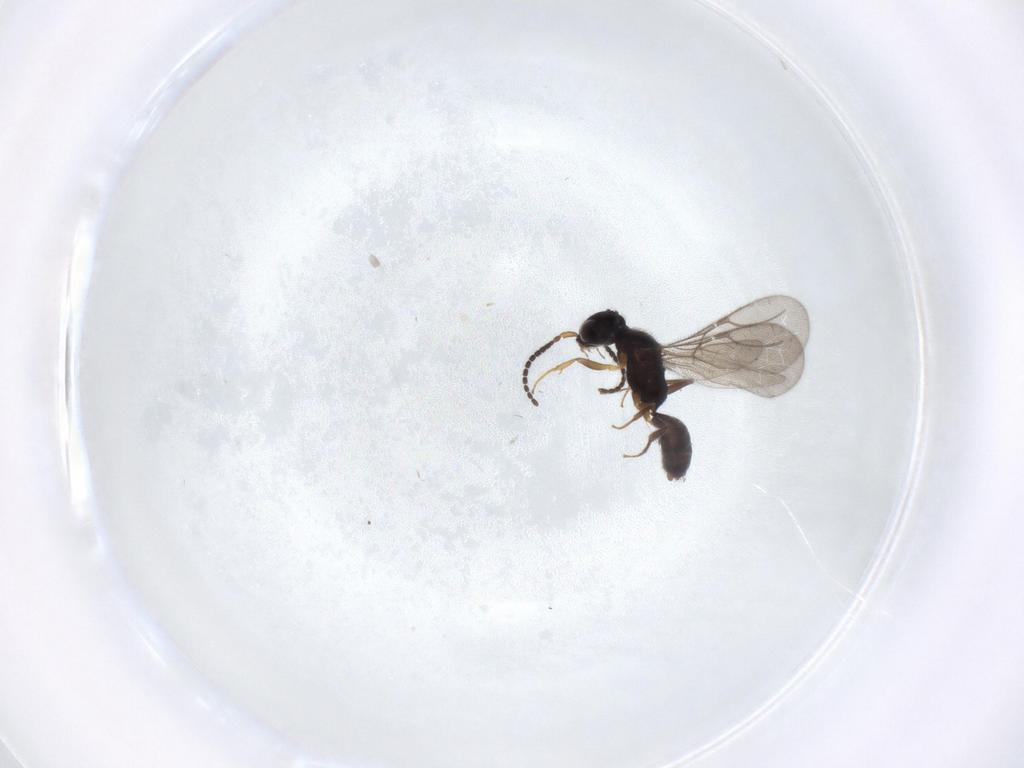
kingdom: Animalia
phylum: Arthropoda
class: Insecta
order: Hymenoptera
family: Bethylidae
